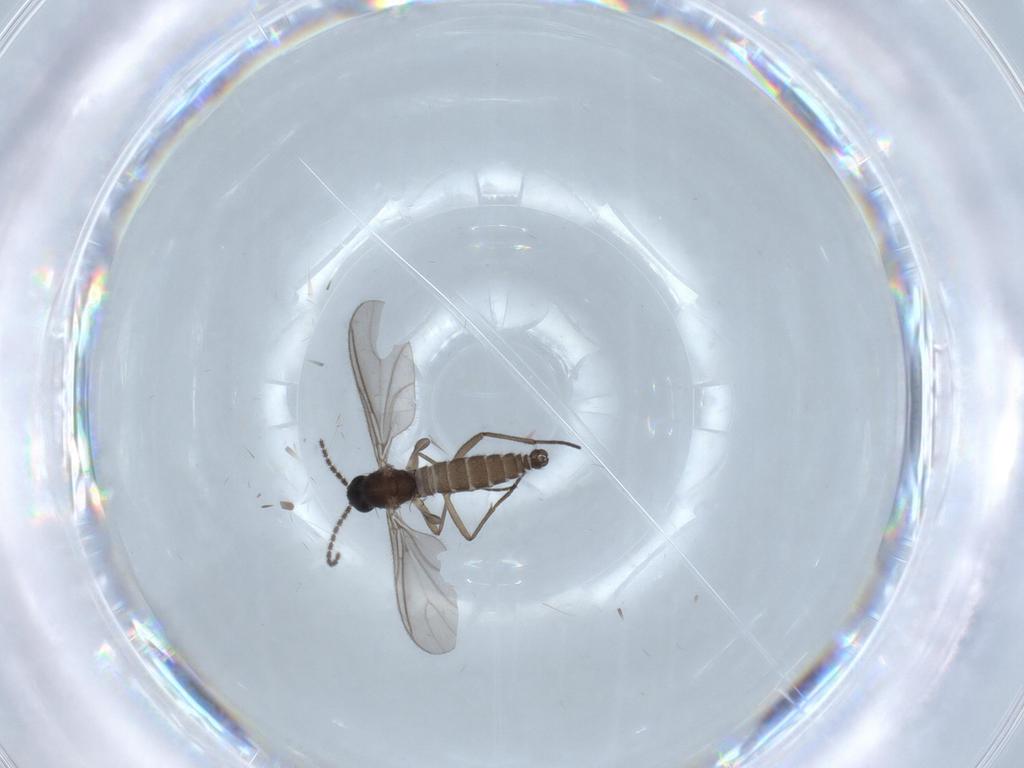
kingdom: Animalia
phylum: Arthropoda
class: Insecta
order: Diptera
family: Sciaridae
